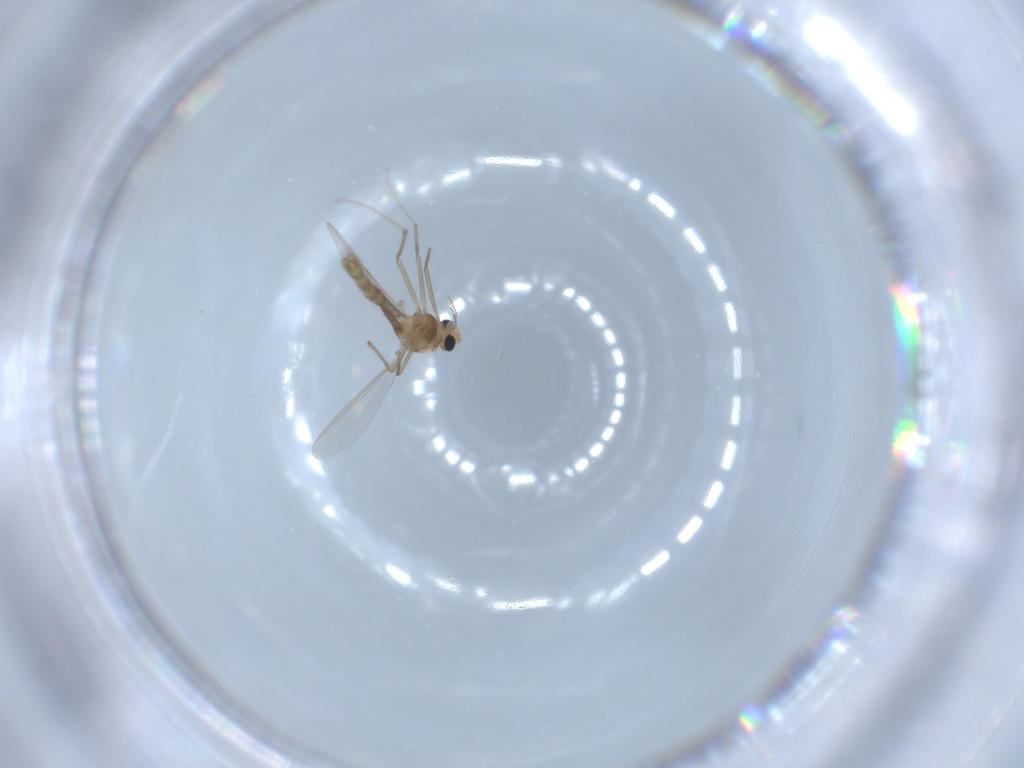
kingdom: Animalia
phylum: Arthropoda
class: Insecta
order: Diptera
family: Chironomidae
